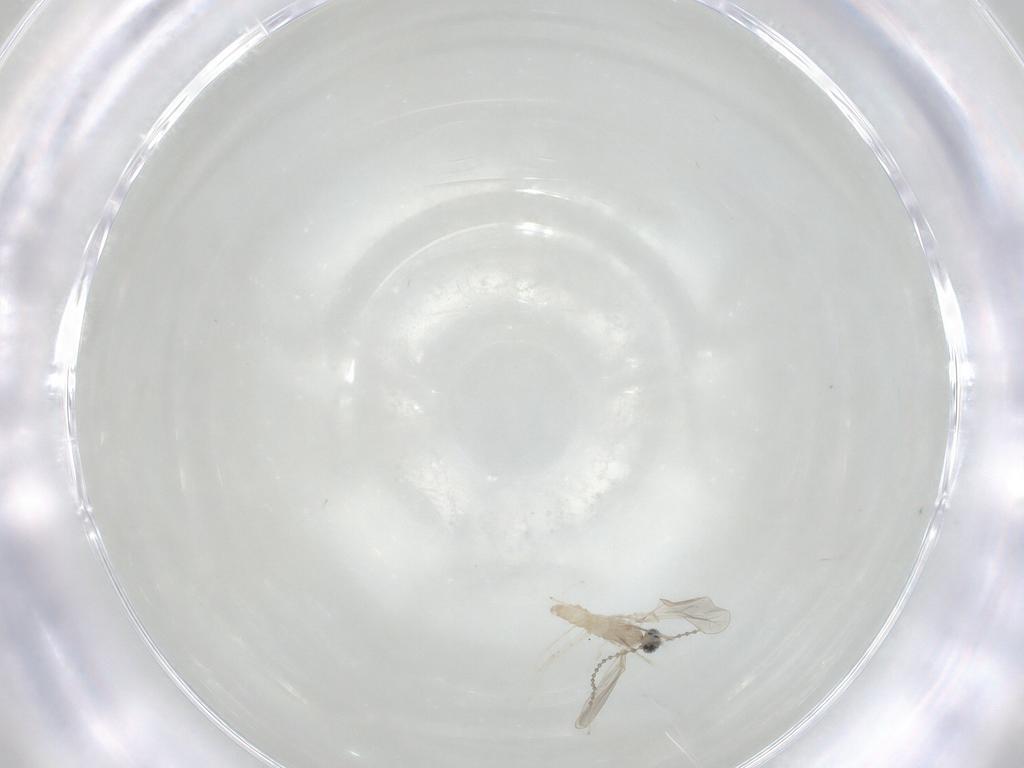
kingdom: Animalia
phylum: Arthropoda
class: Insecta
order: Diptera
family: Cecidomyiidae
